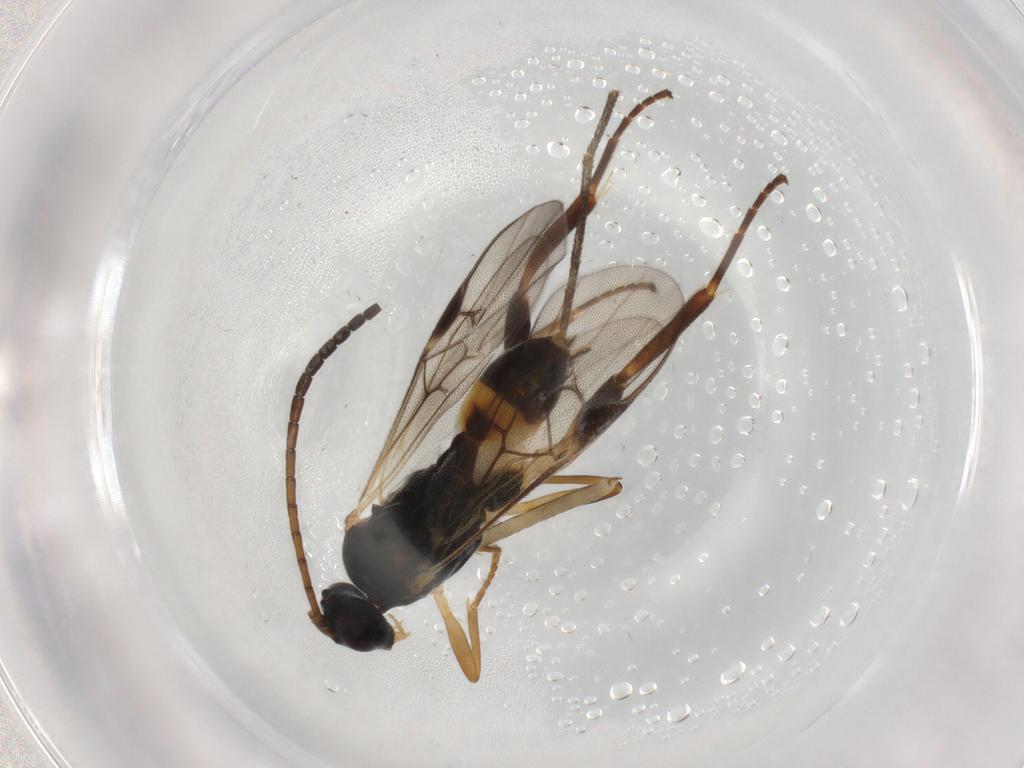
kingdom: Animalia
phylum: Arthropoda
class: Insecta
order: Hymenoptera
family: Braconidae
